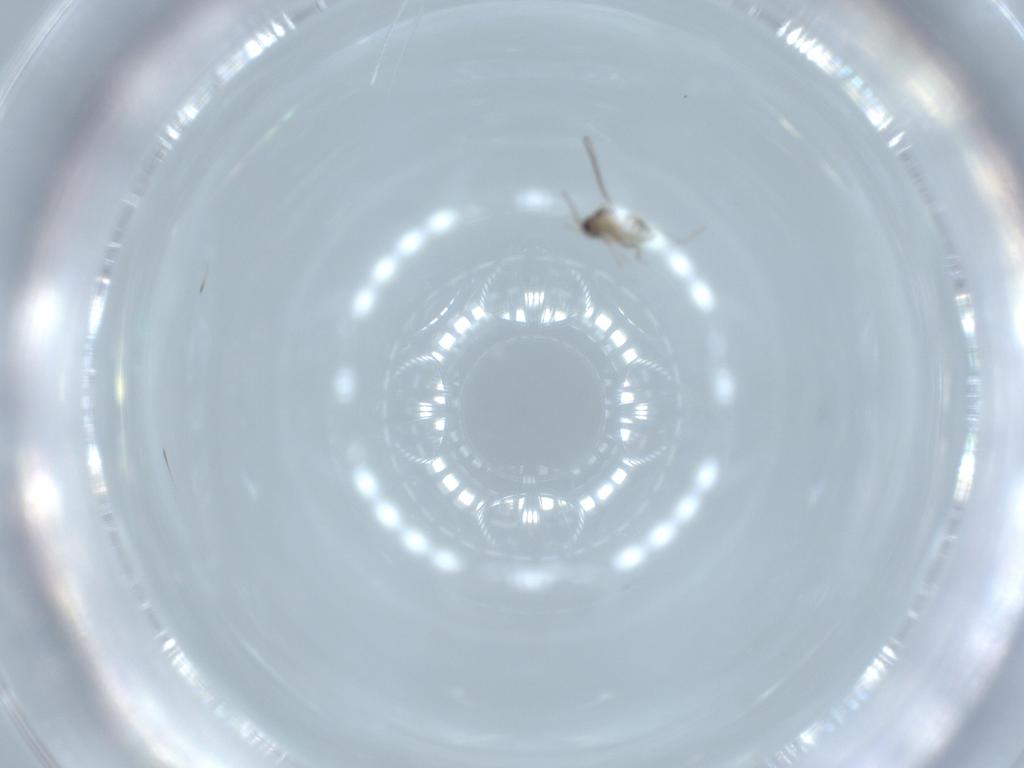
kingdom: Animalia
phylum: Arthropoda
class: Insecta
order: Diptera
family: Cecidomyiidae
